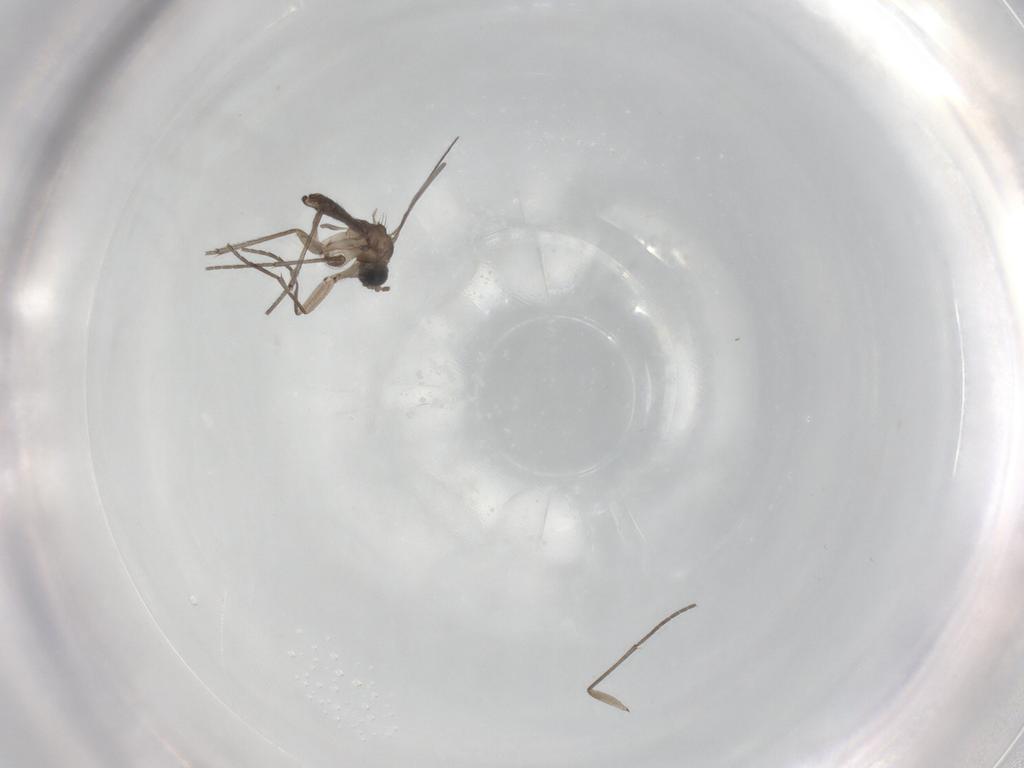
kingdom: Animalia
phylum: Arthropoda
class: Insecta
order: Diptera
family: Sciaridae
